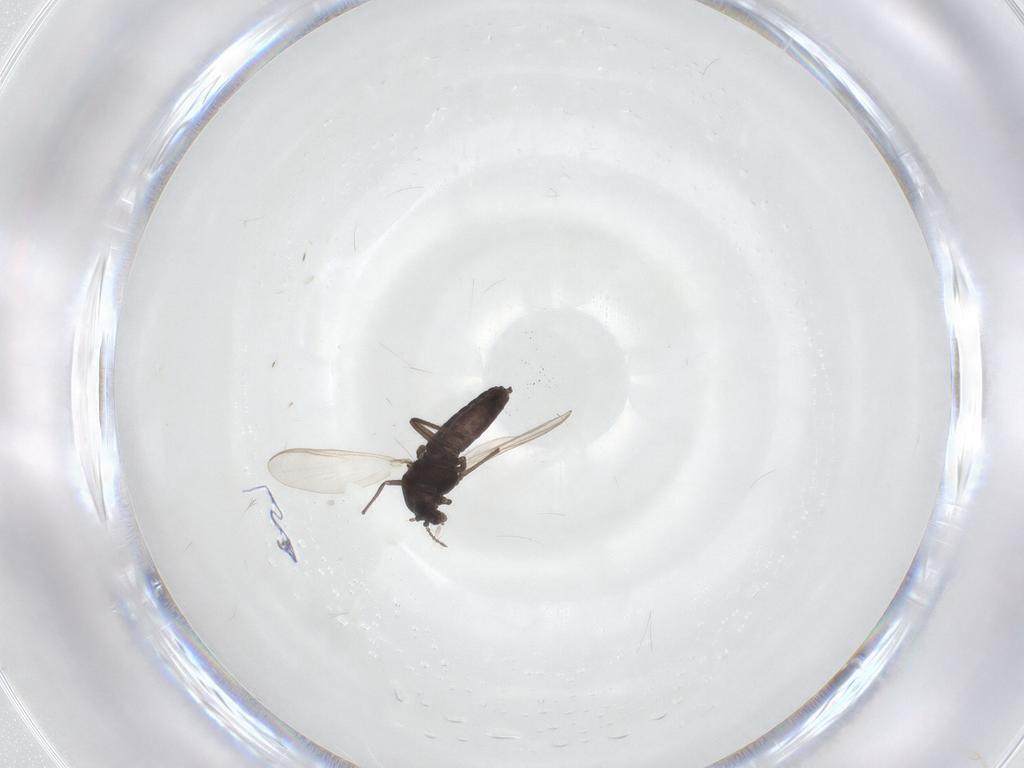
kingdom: Animalia
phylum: Arthropoda
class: Insecta
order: Diptera
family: Chironomidae
